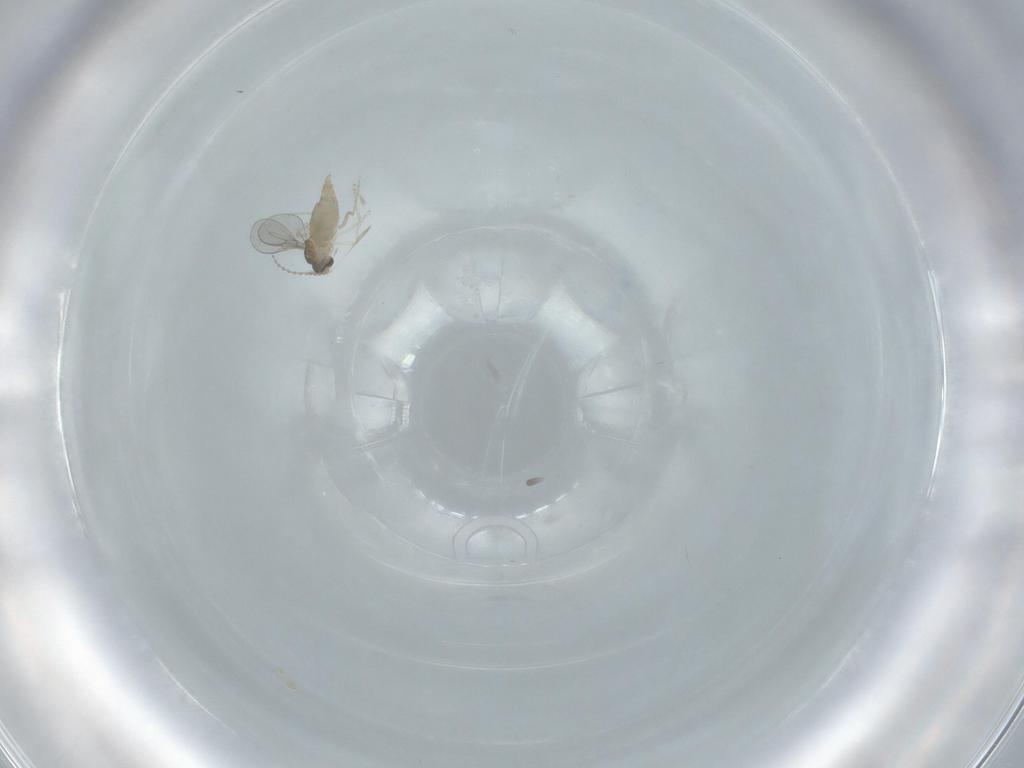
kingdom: Animalia
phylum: Arthropoda
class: Insecta
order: Diptera
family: Cecidomyiidae
